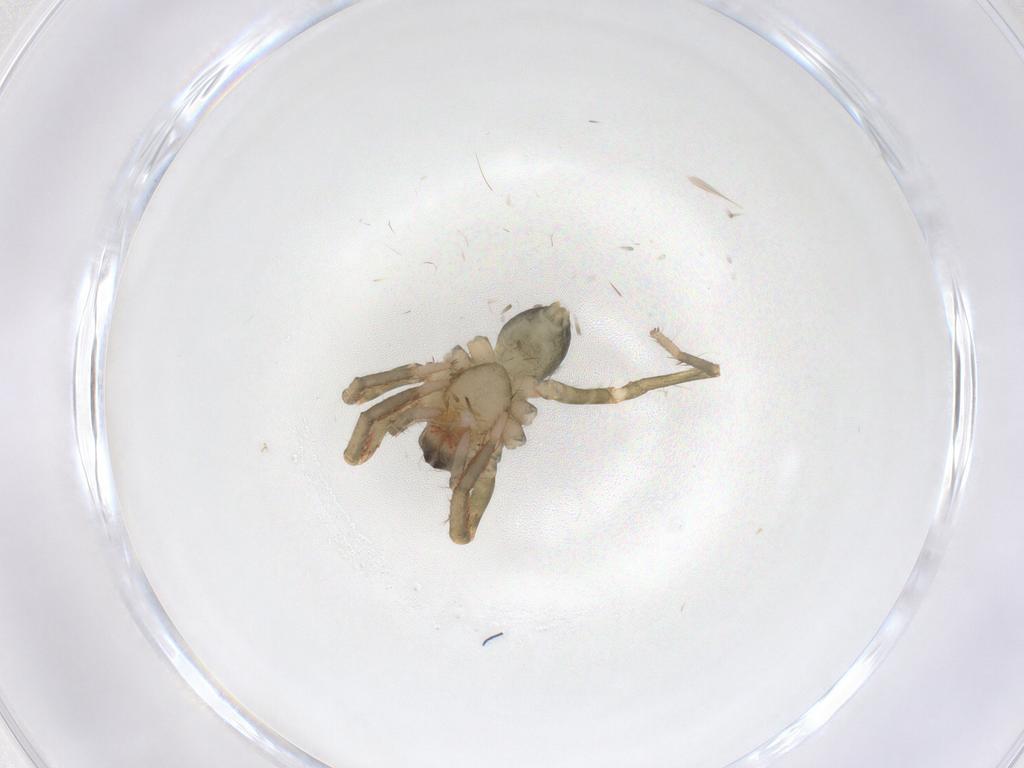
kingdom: Animalia
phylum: Arthropoda
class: Arachnida
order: Araneae
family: Ctenidae
